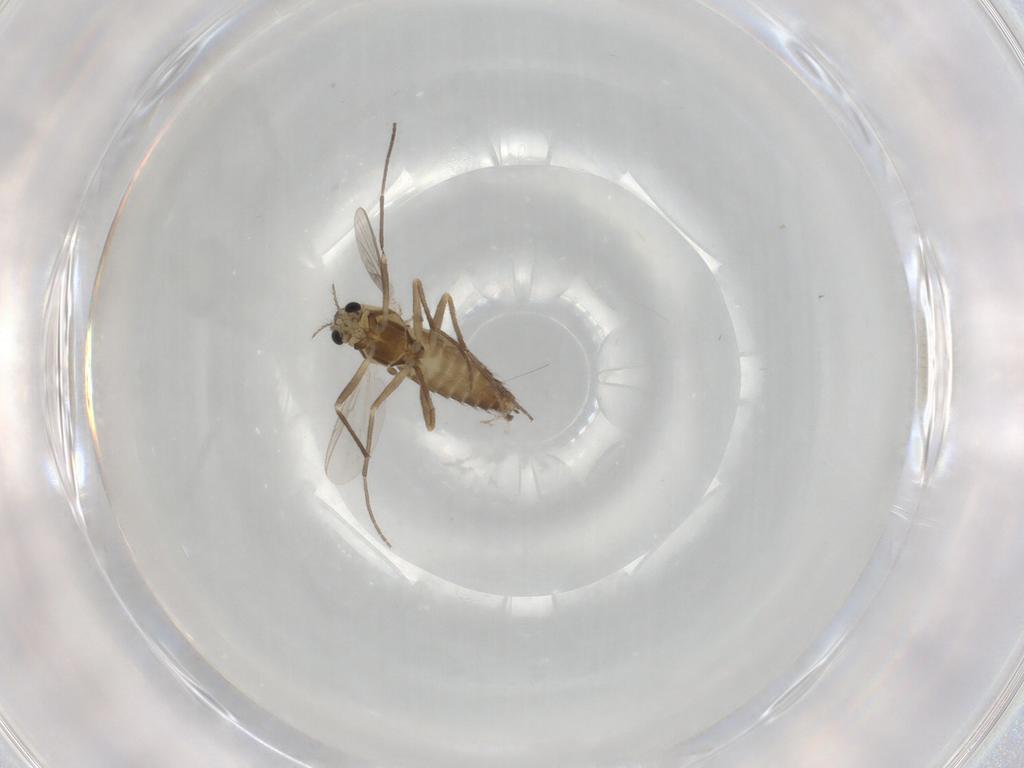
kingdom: Animalia
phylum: Arthropoda
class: Insecta
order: Diptera
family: Chironomidae
